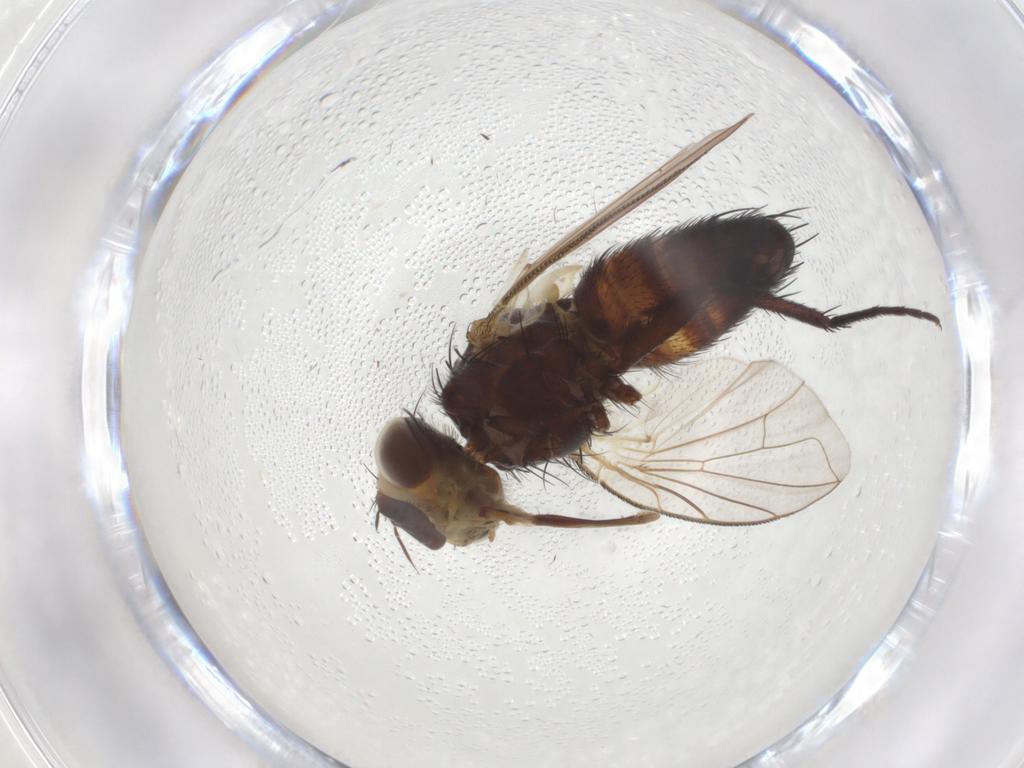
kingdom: Animalia
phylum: Arthropoda
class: Insecta
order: Diptera
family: Tachinidae
